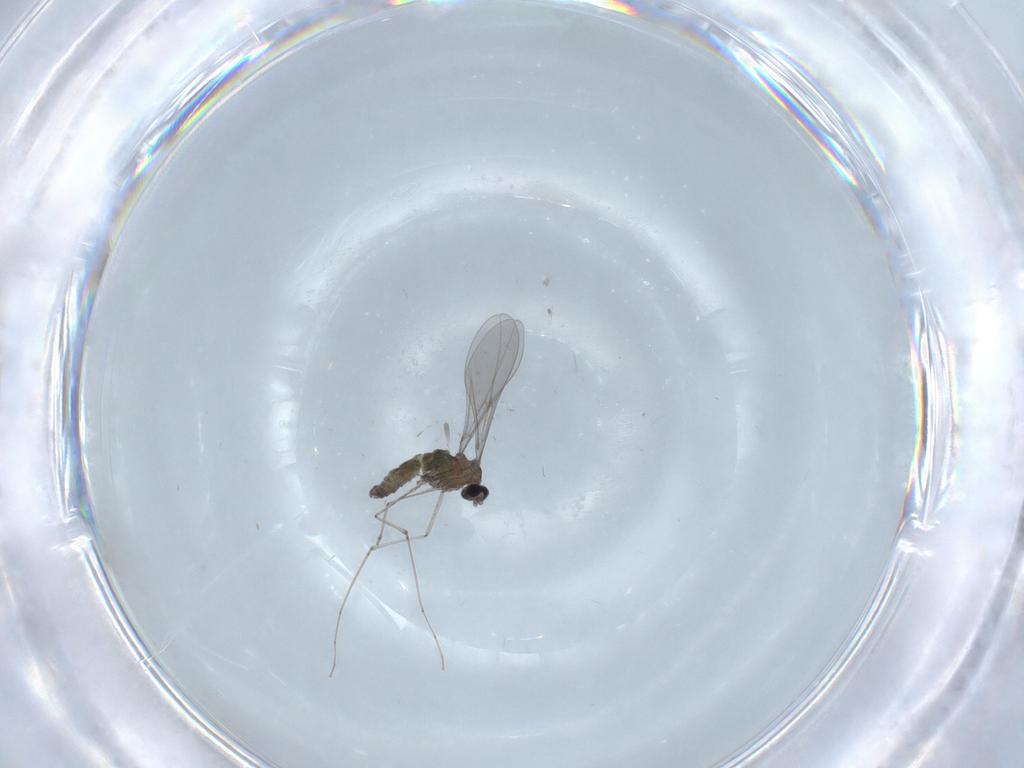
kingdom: Animalia
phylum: Arthropoda
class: Insecta
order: Diptera
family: Cecidomyiidae
